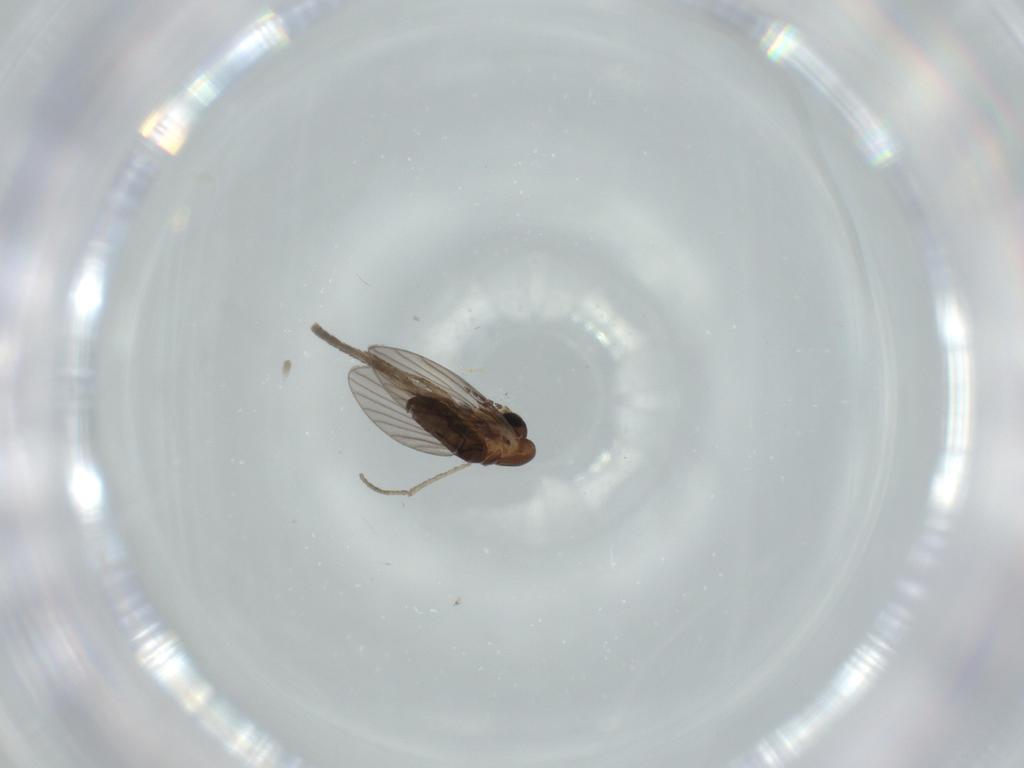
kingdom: Animalia
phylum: Arthropoda
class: Insecta
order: Diptera
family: Psychodidae
